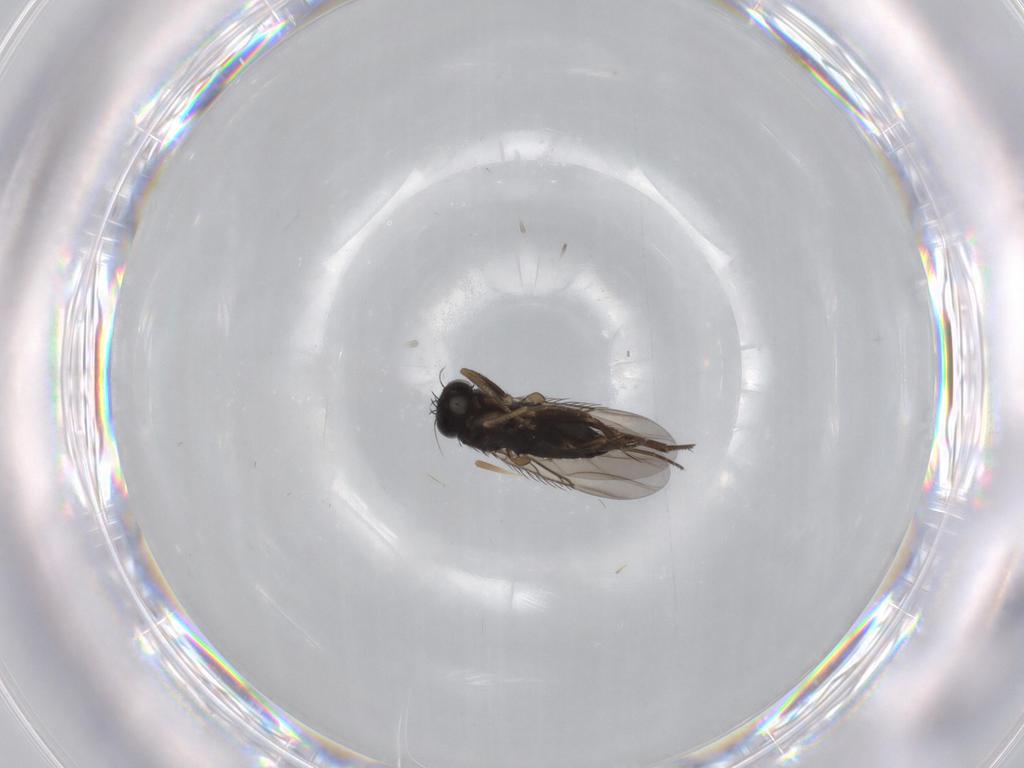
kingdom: Animalia
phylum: Arthropoda
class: Insecta
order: Diptera
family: Phoridae
